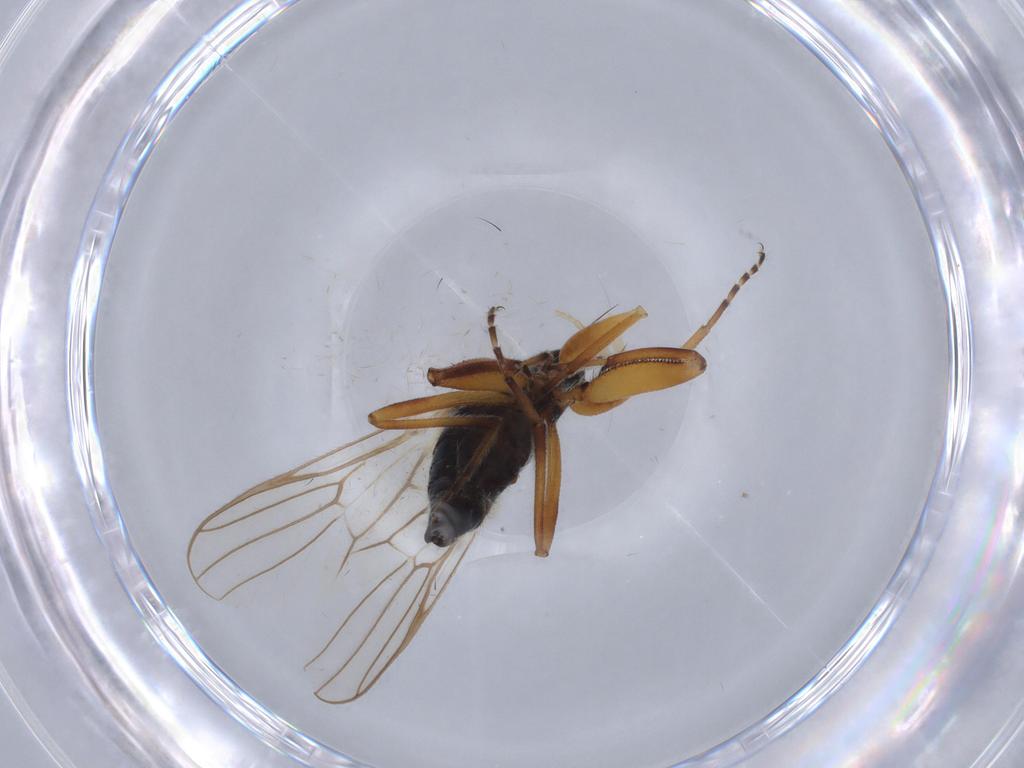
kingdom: Animalia
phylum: Arthropoda
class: Insecta
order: Diptera
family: Hybotidae
